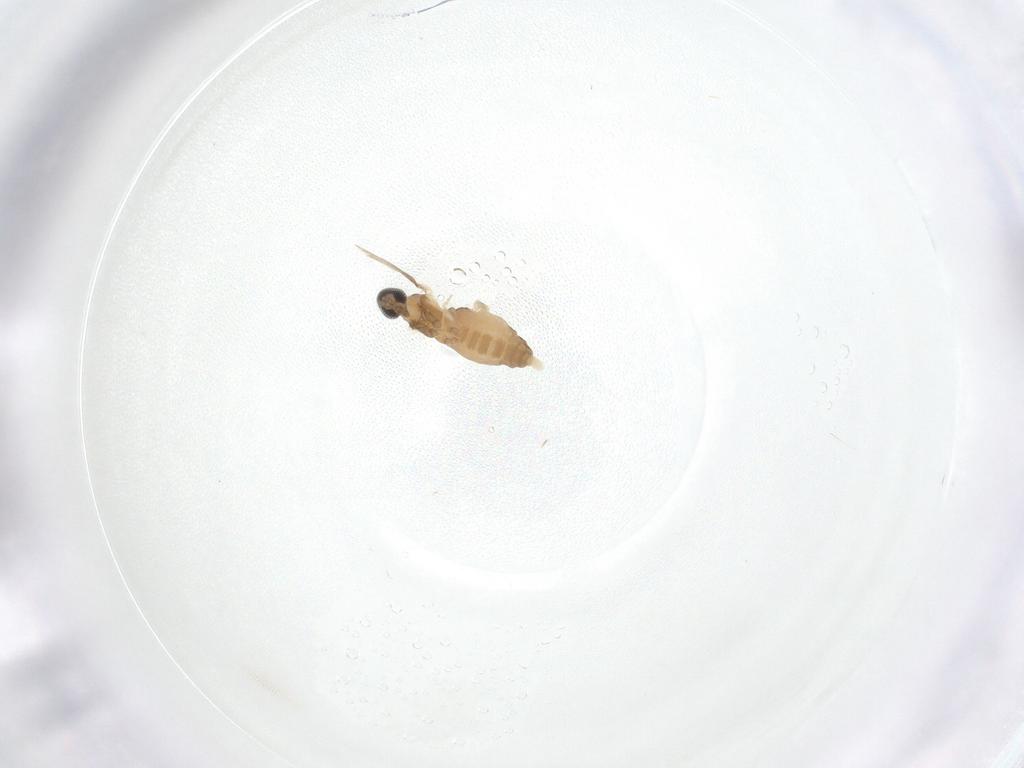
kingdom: Animalia
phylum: Arthropoda
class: Insecta
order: Diptera
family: Cecidomyiidae
